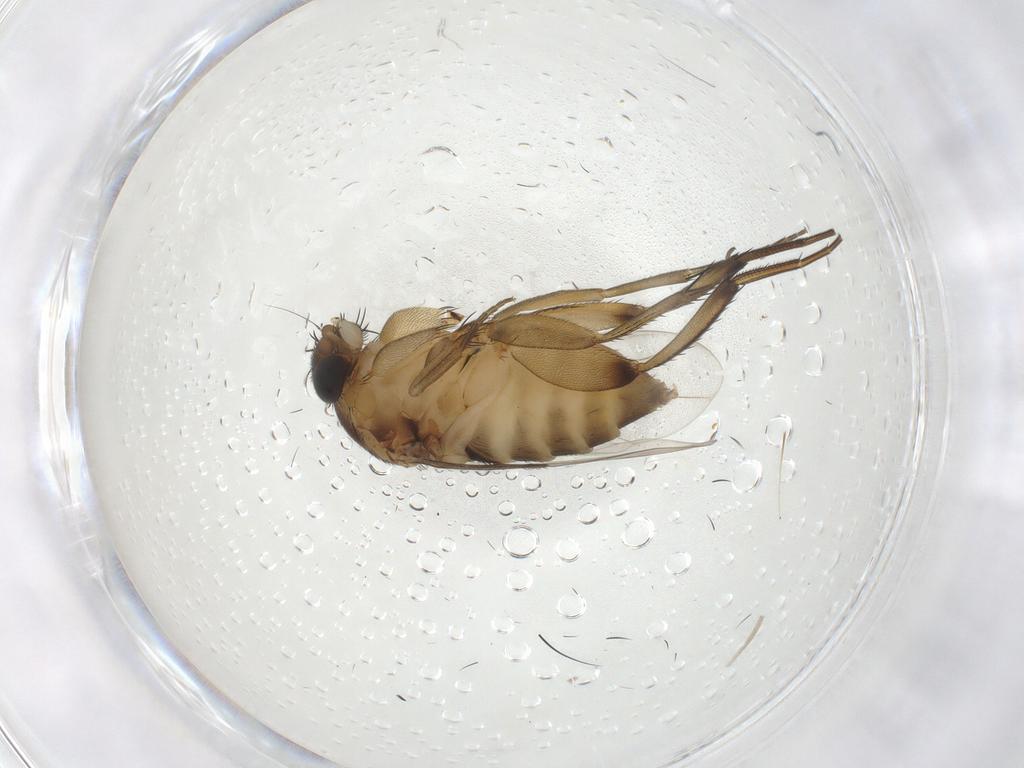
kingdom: Animalia
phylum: Arthropoda
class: Insecta
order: Diptera
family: Phoridae
